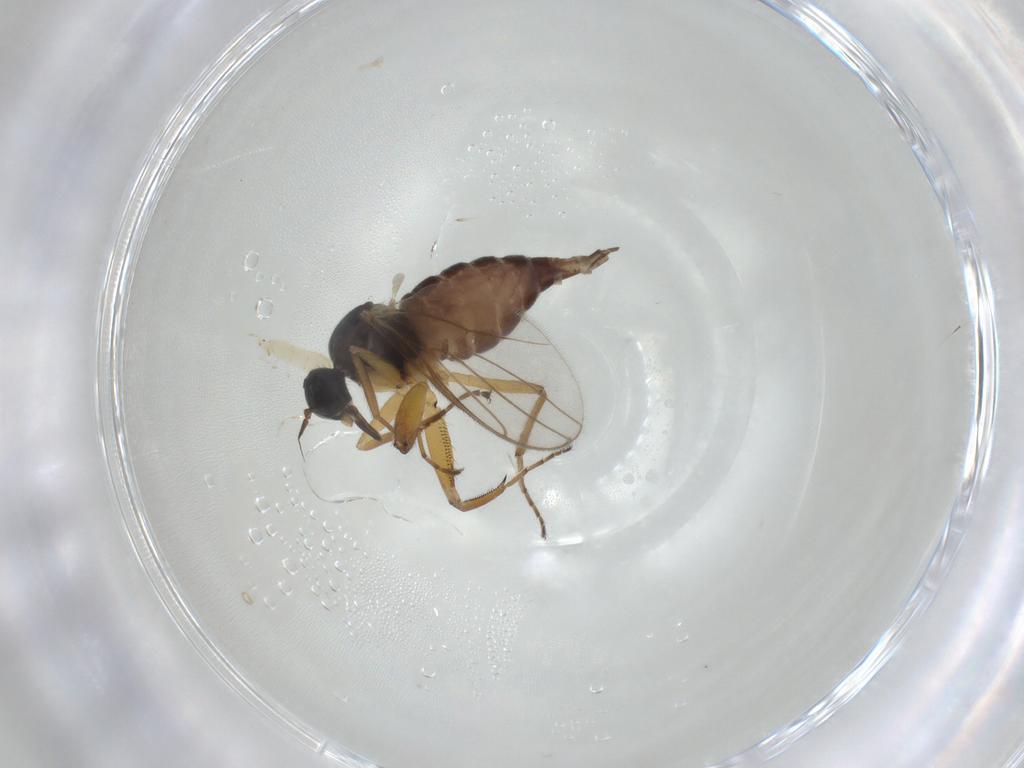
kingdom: Animalia
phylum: Arthropoda
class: Insecta
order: Diptera
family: Hybotidae
